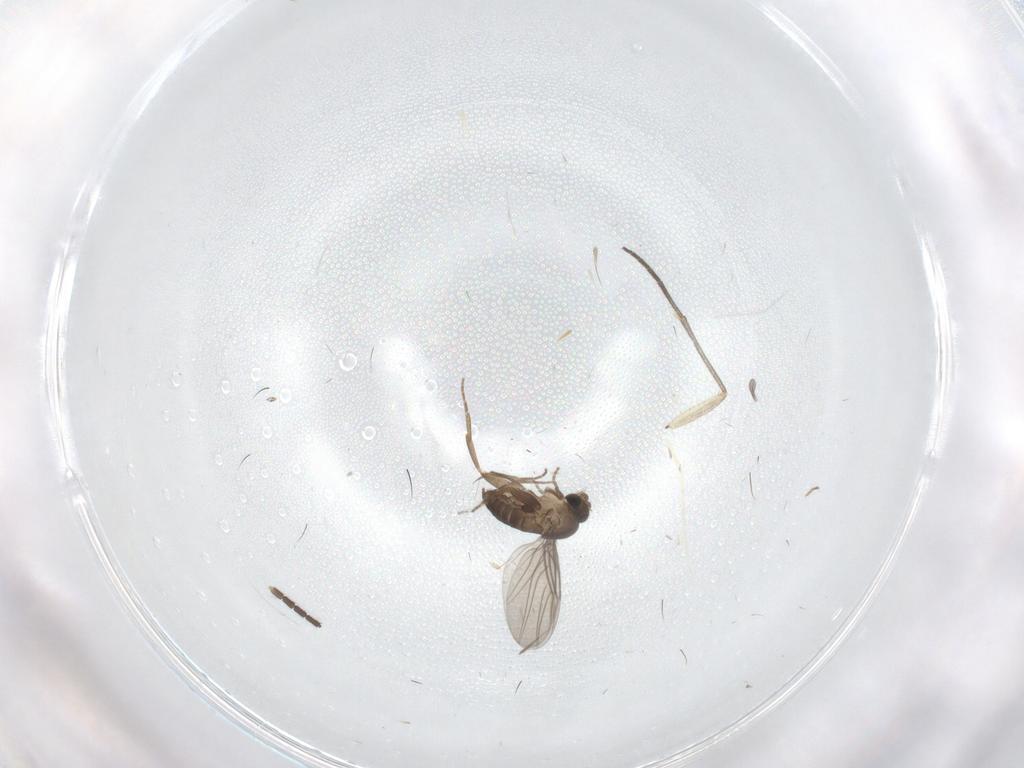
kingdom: Animalia
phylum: Arthropoda
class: Insecta
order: Diptera
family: Sciaridae
